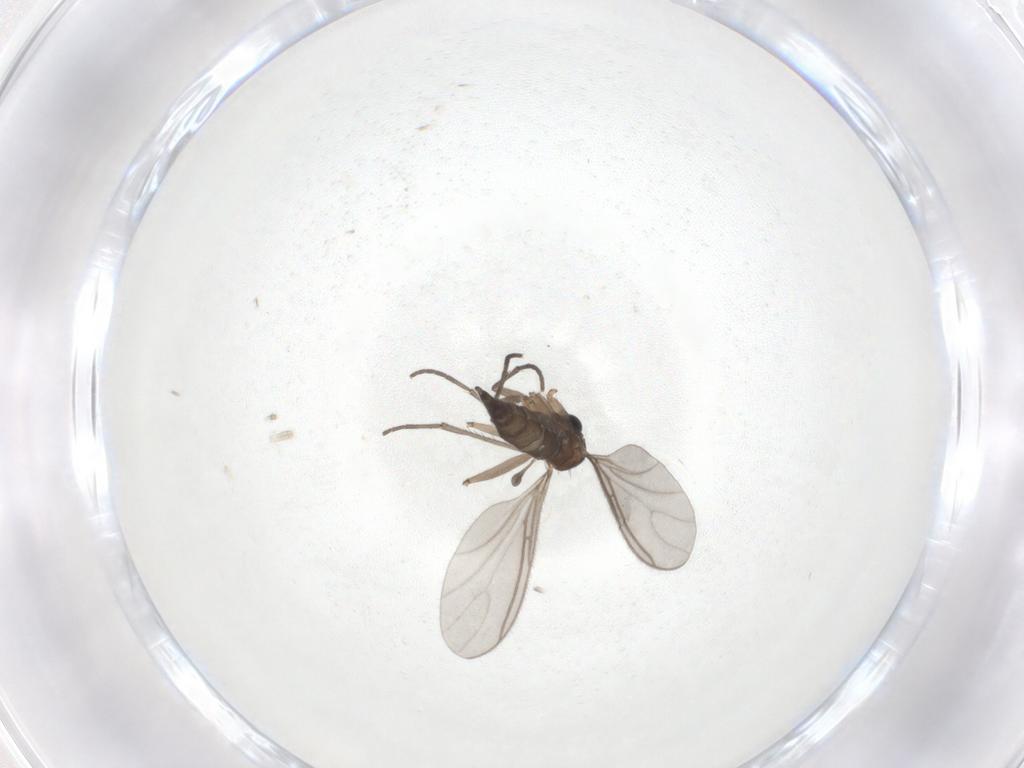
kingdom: Animalia
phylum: Arthropoda
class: Insecta
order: Diptera
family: Sciaridae
